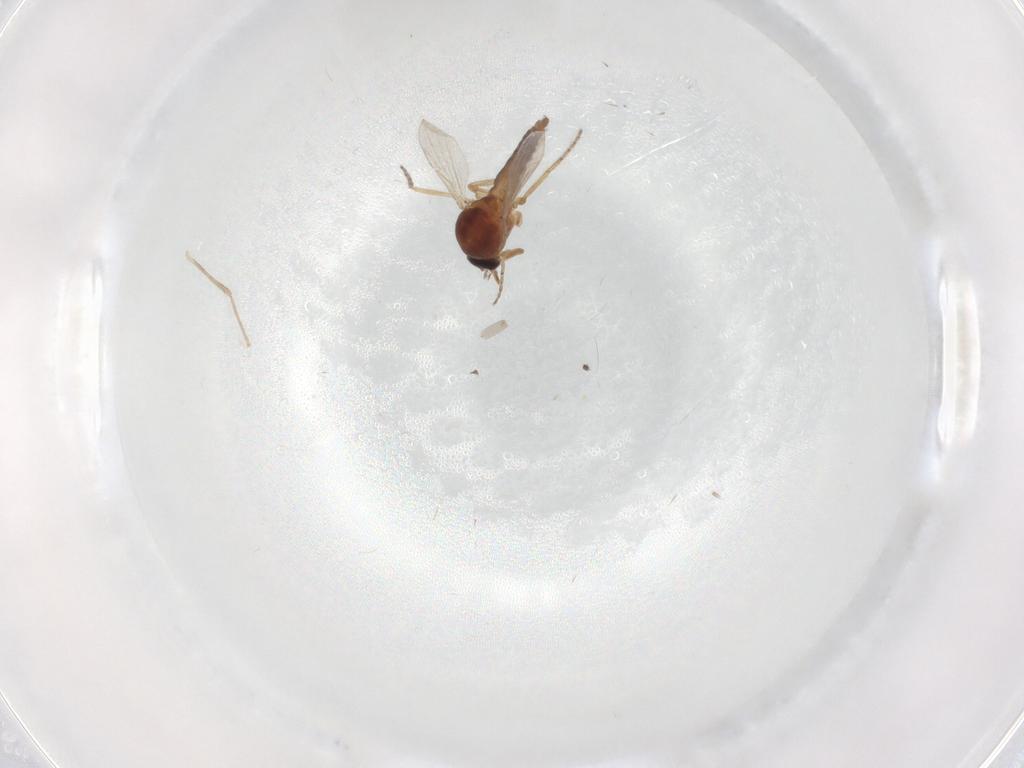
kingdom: Animalia
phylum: Arthropoda
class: Insecta
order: Diptera
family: Ceratopogonidae
